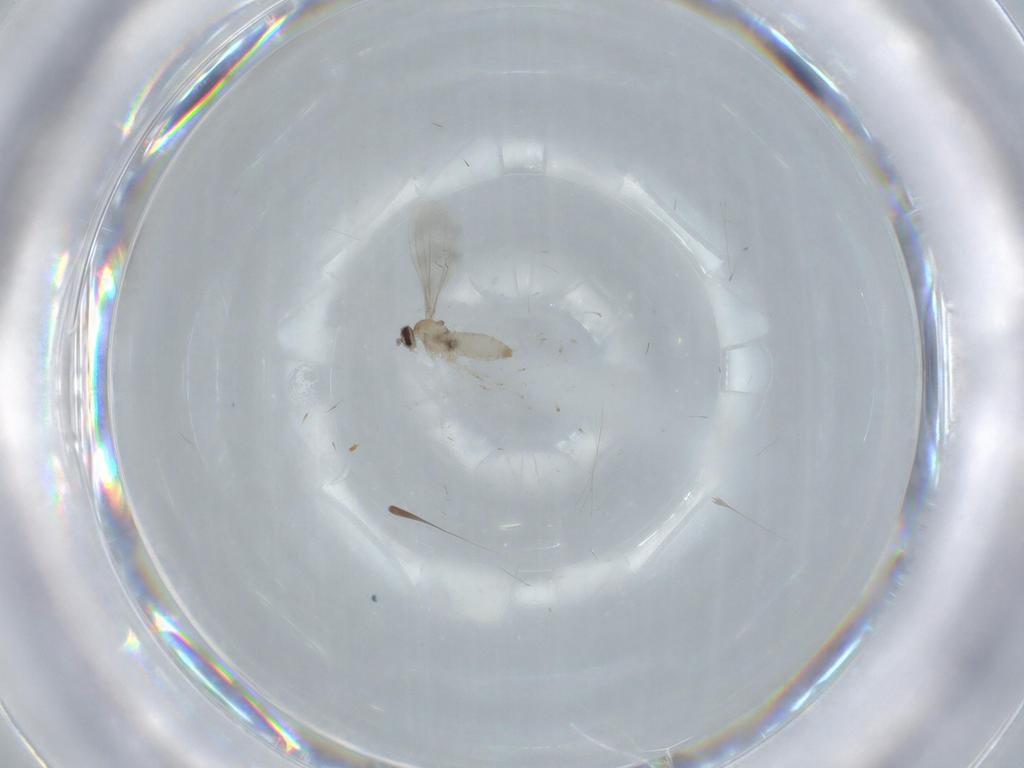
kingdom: Animalia
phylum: Arthropoda
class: Insecta
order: Diptera
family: Cecidomyiidae
